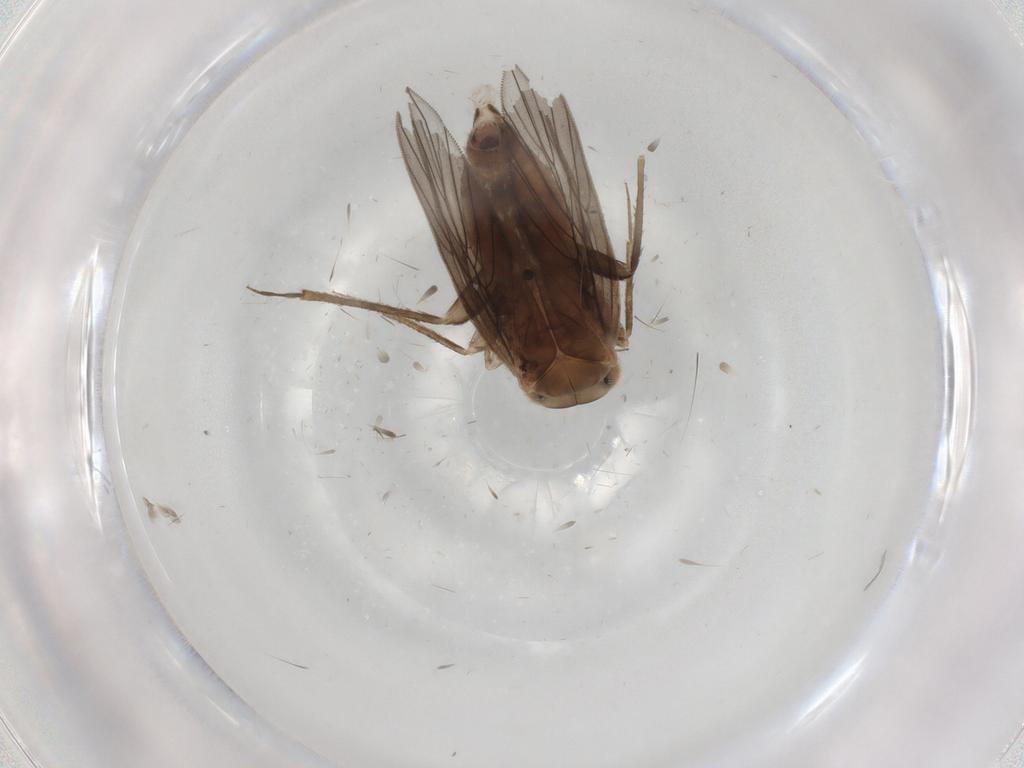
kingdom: Animalia
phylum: Arthropoda
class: Insecta
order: Psocodea
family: Lepidopsocidae
